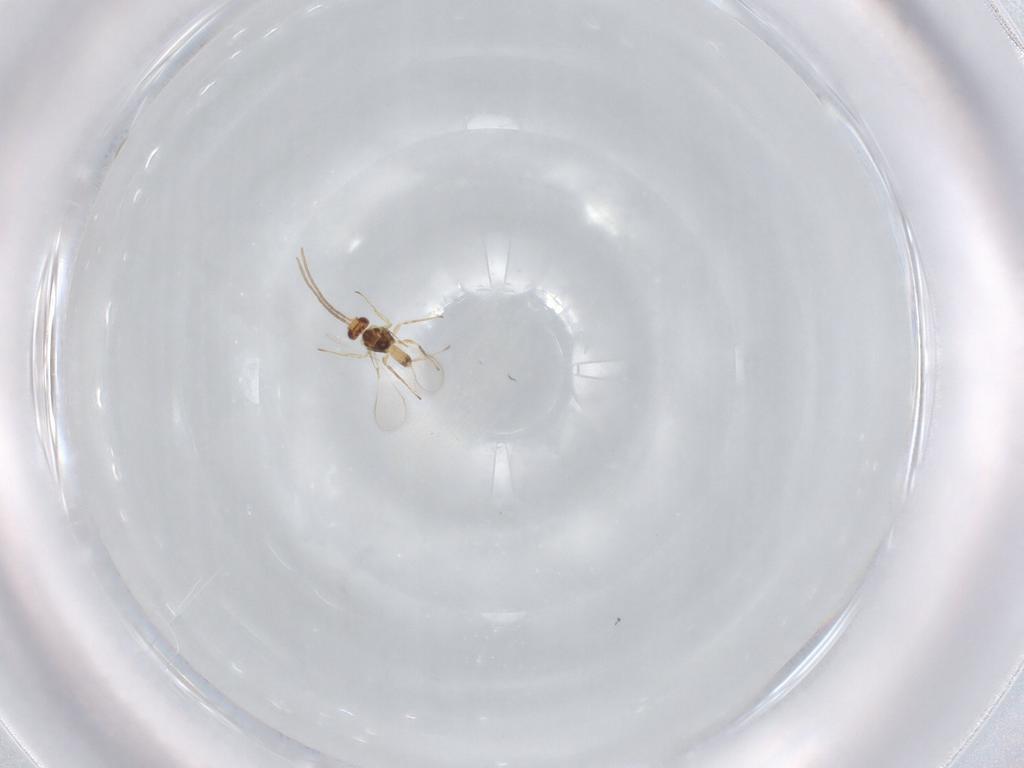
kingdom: Animalia
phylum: Arthropoda
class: Insecta
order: Hymenoptera
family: Mymaridae
